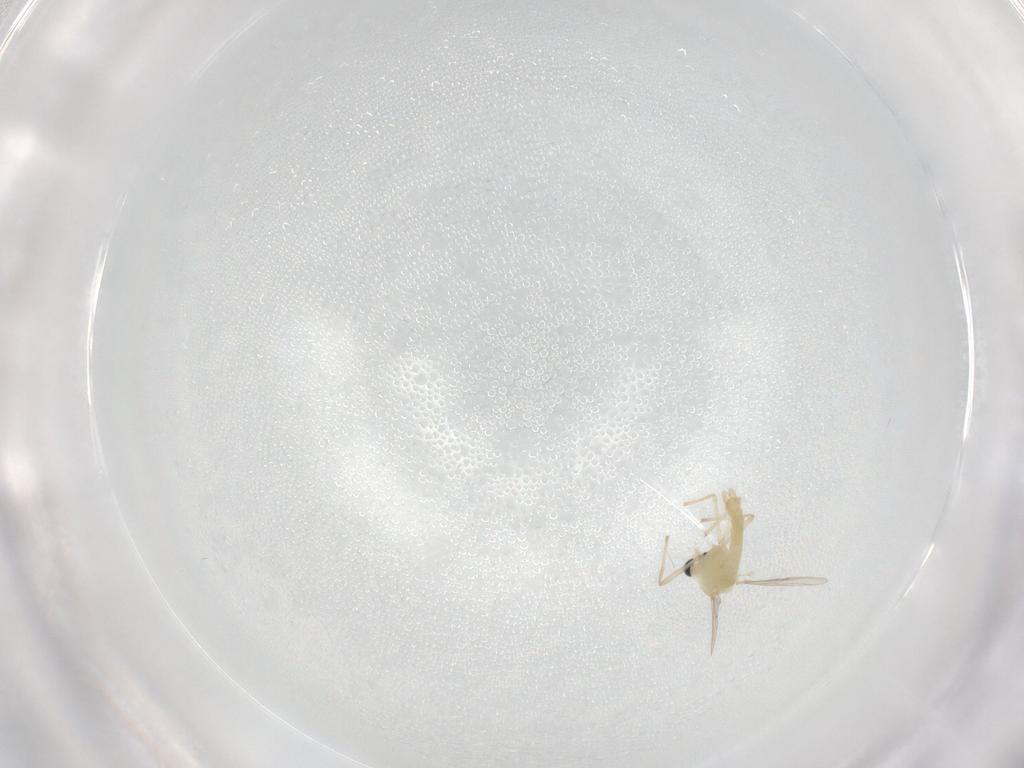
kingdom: Animalia
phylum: Arthropoda
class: Insecta
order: Diptera
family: Chironomidae
